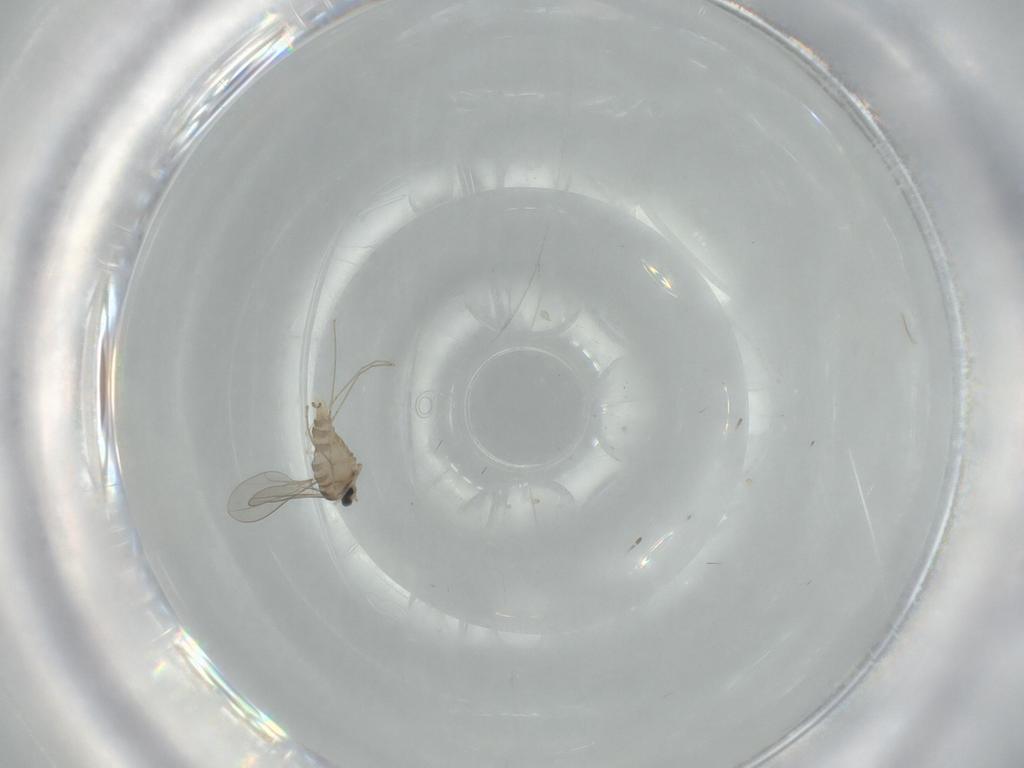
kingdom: Animalia
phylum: Arthropoda
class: Insecta
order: Diptera
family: Cecidomyiidae
